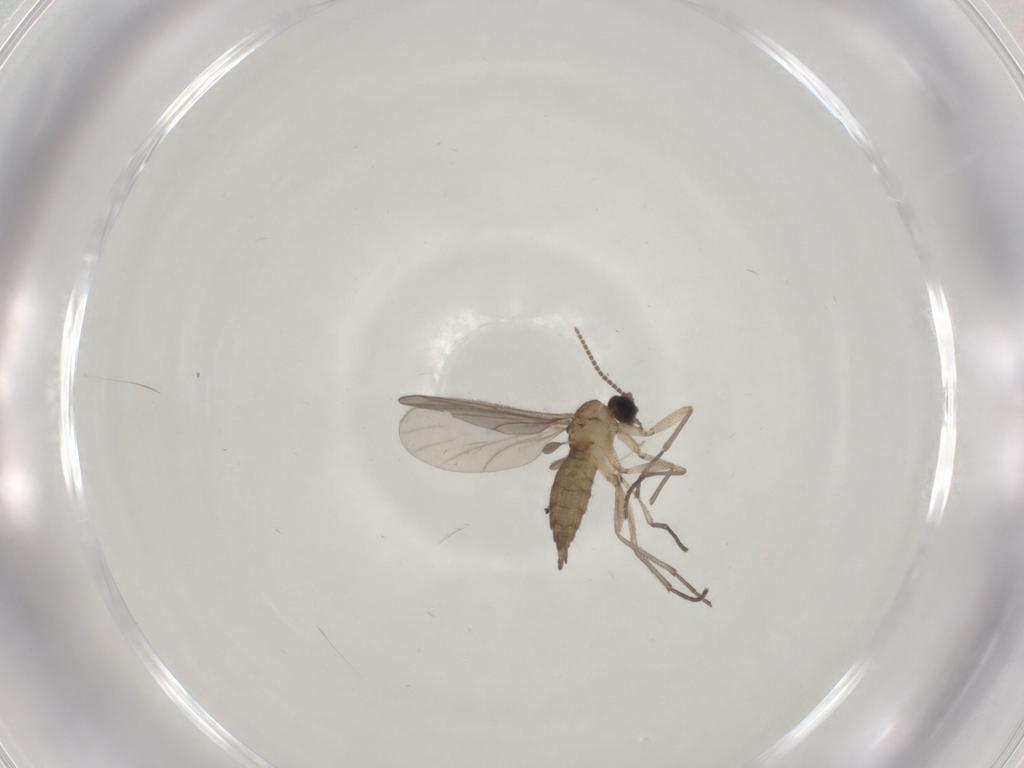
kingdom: Animalia
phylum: Arthropoda
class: Insecta
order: Diptera
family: Sciaridae
